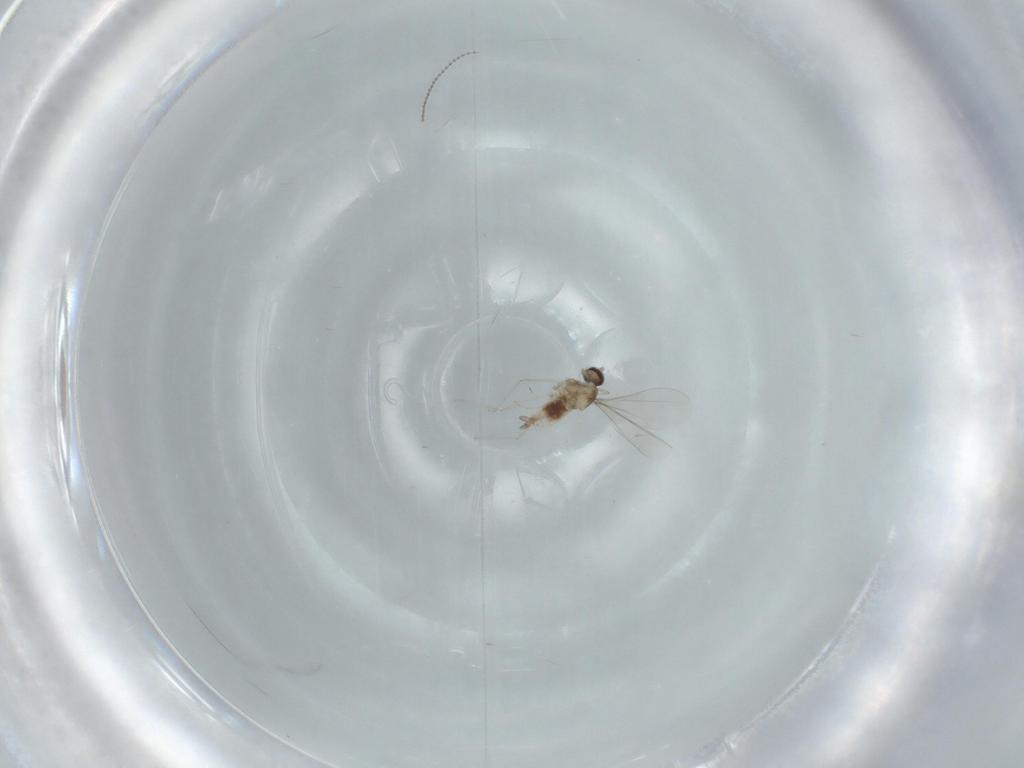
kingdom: Animalia
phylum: Arthropoda
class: Insecta
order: Diptera
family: Cecidomyiidae
